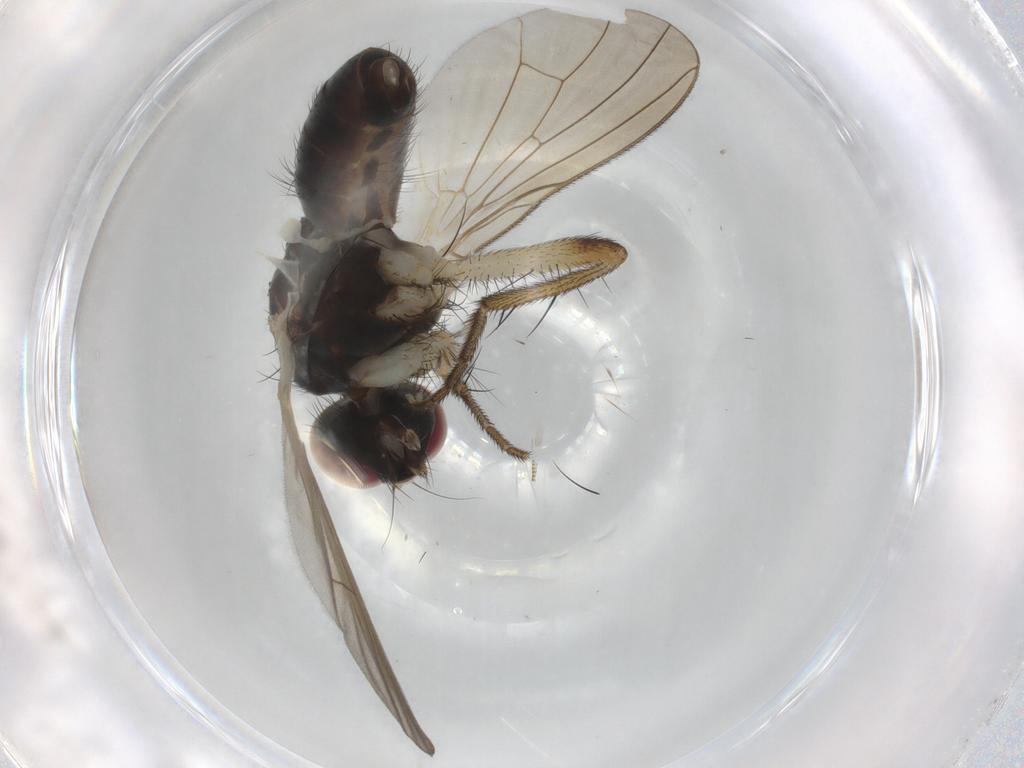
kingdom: Animalia
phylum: Arthropoda
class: Insecta
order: Diptera
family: Muscidae
